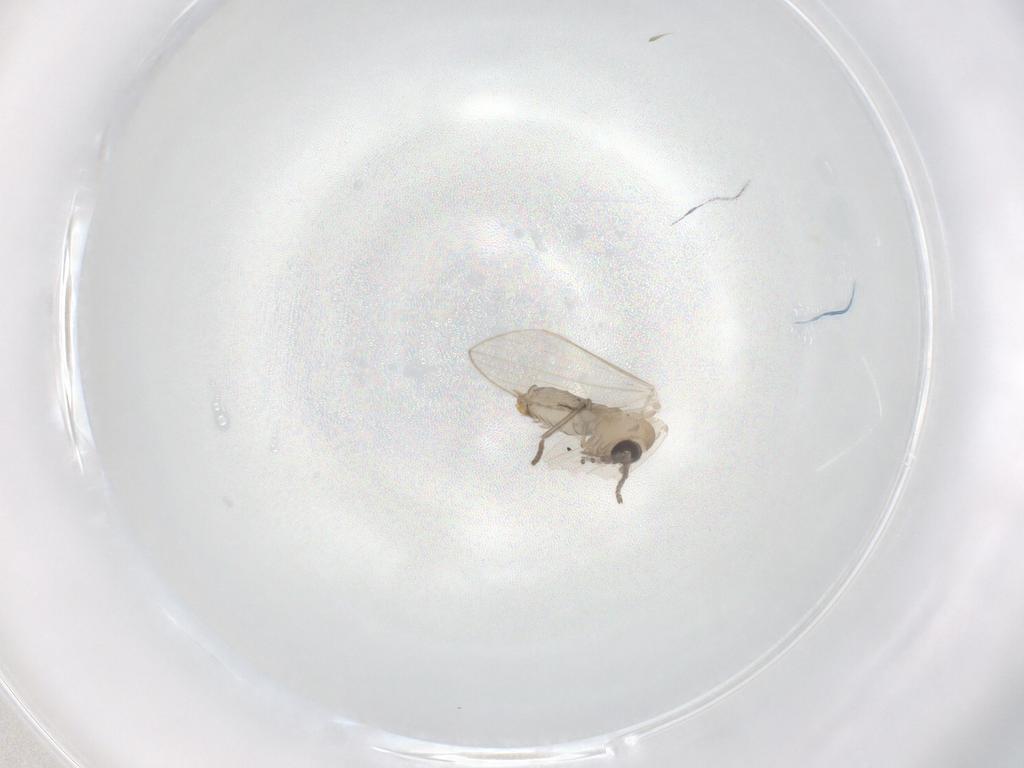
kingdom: Animalia
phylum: Arthropoda
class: Insecta
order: Diptera
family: Psychodidae
